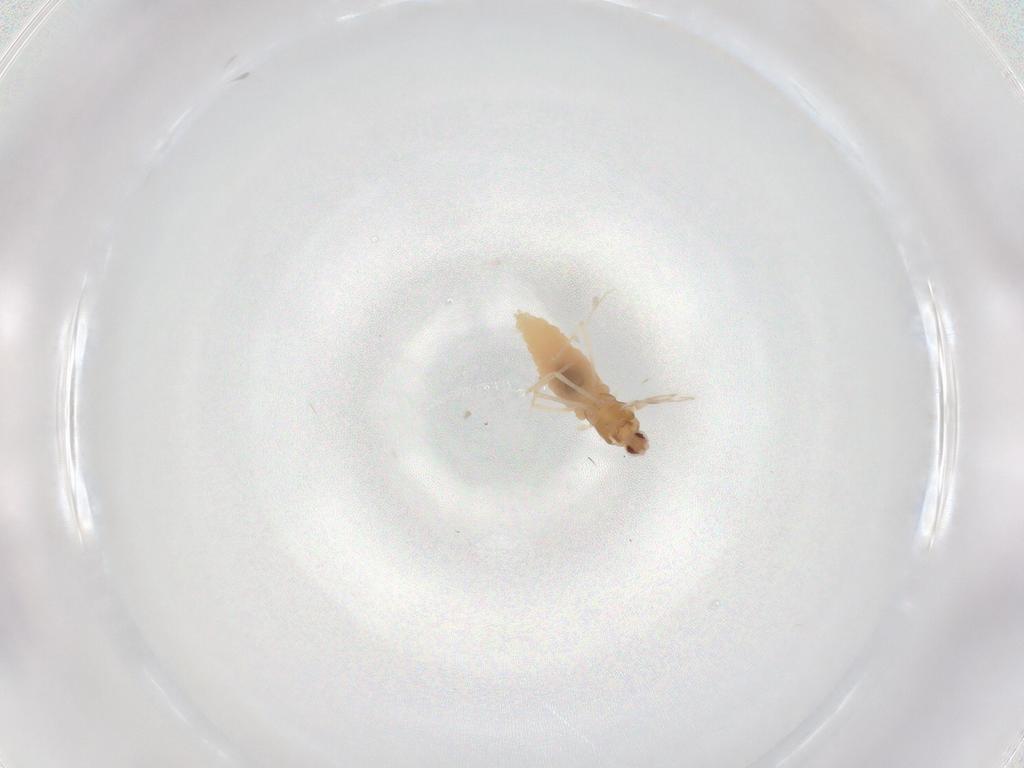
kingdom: Animalia
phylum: Arthropoda
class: Insecta
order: Diptera
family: Cecidomyiidae
